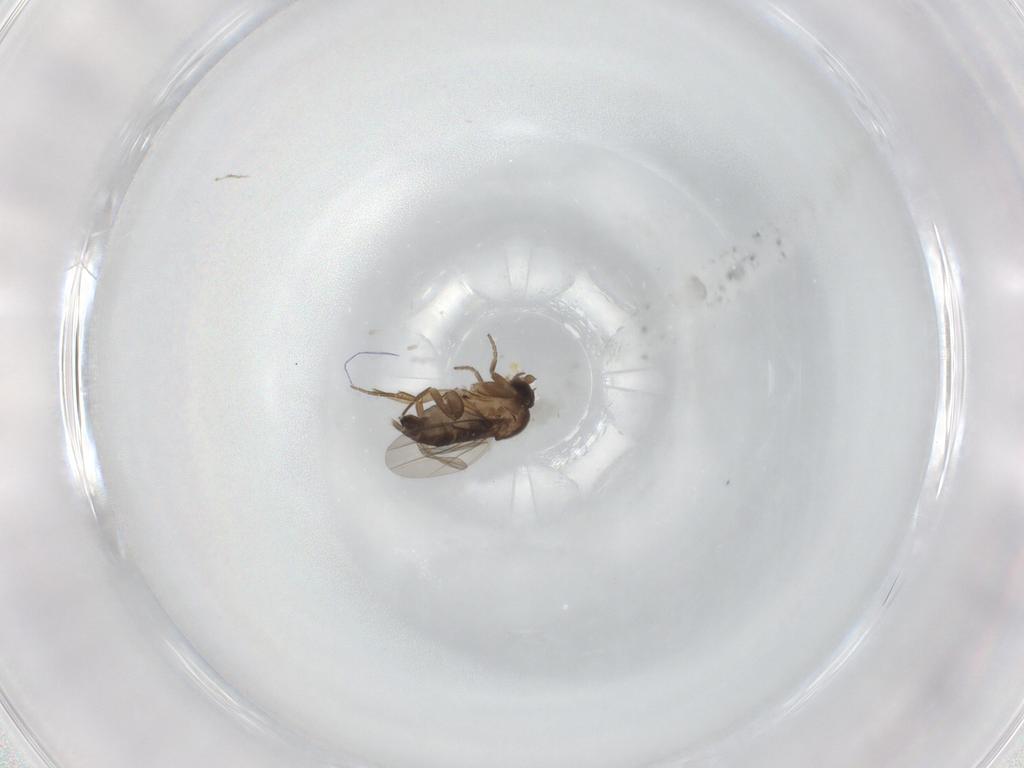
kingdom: Animalia
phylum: Arthropoda
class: Insecta
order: Diptera
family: Phoridae
